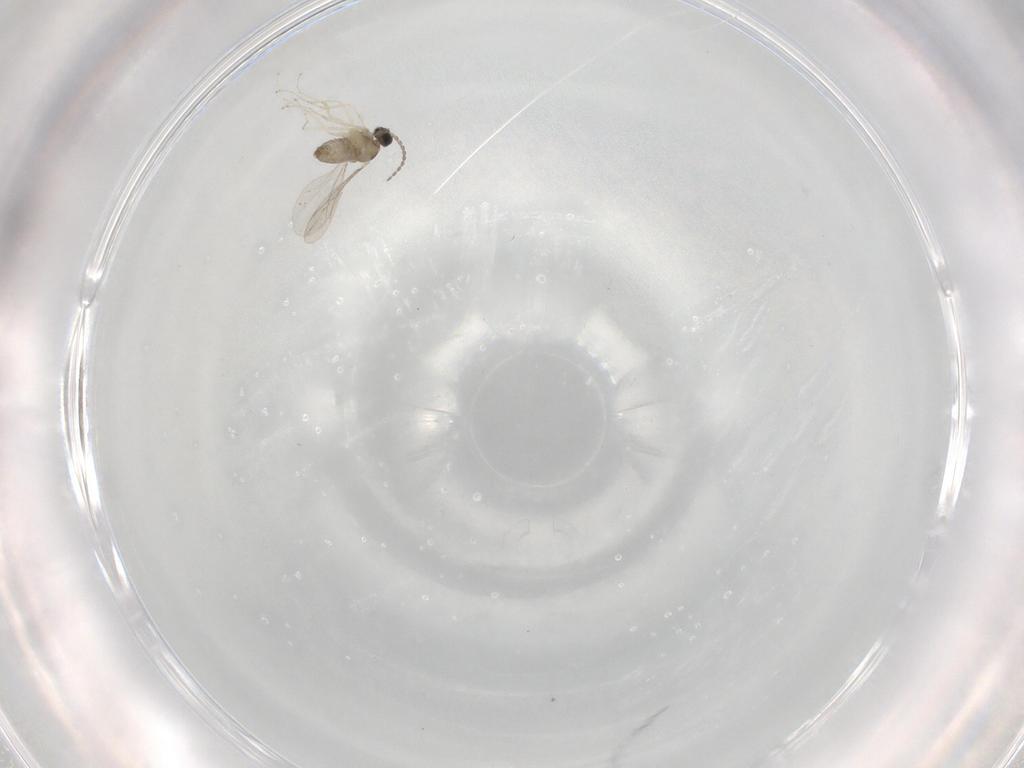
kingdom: Animalia
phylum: Arthropoda
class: Insecta
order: Diptera
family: Cecidomyiidae
